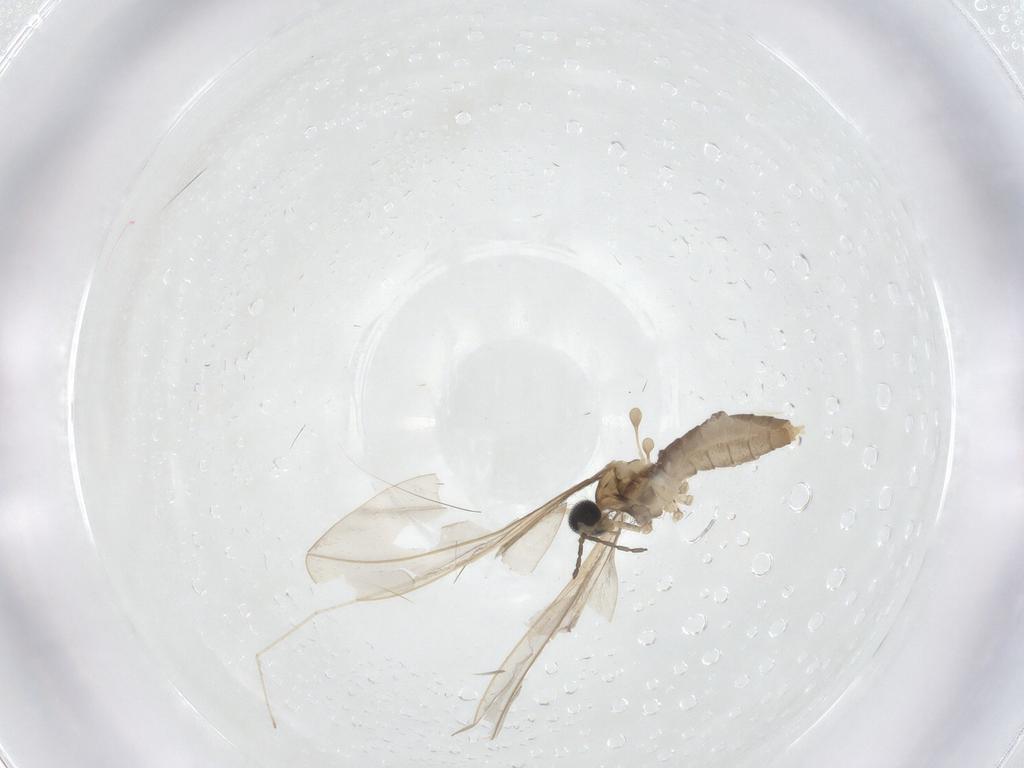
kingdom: Animalia
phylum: Arthropoda
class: Insecta
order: Diptera
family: Cecidomyiidae
